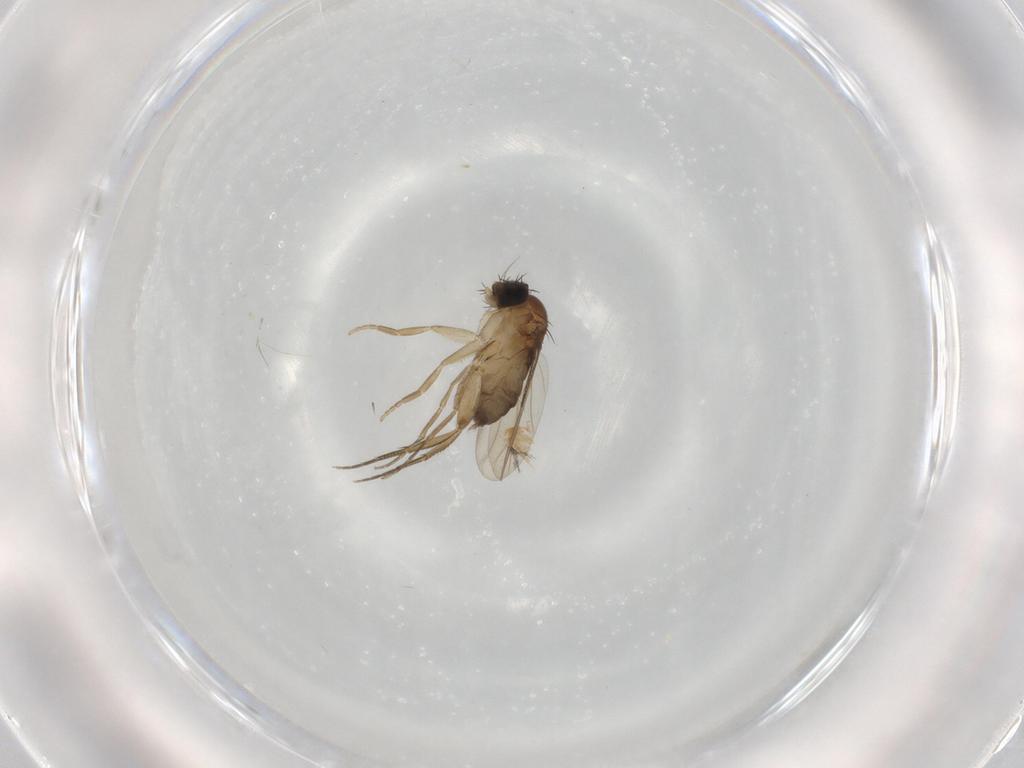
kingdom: Animalia
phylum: Arthropoda
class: Insecta
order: Diptera
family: Phoridae
